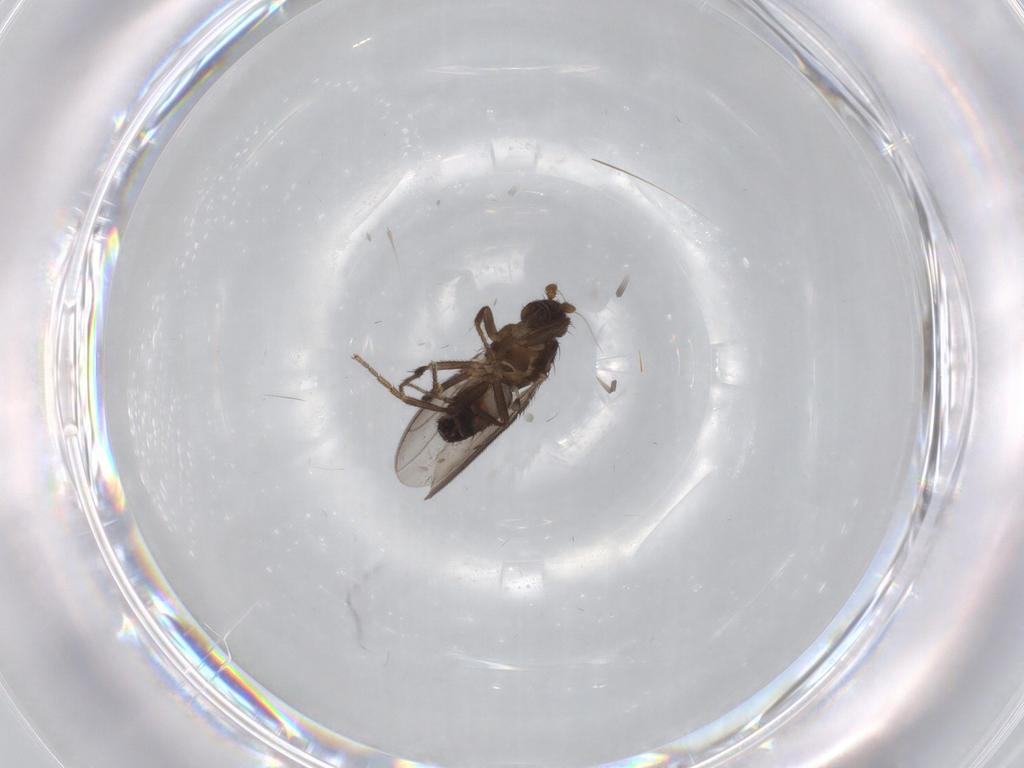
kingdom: Animalia
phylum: Arthropoda
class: Insecta
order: Diptera
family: Sphaeroceridae
